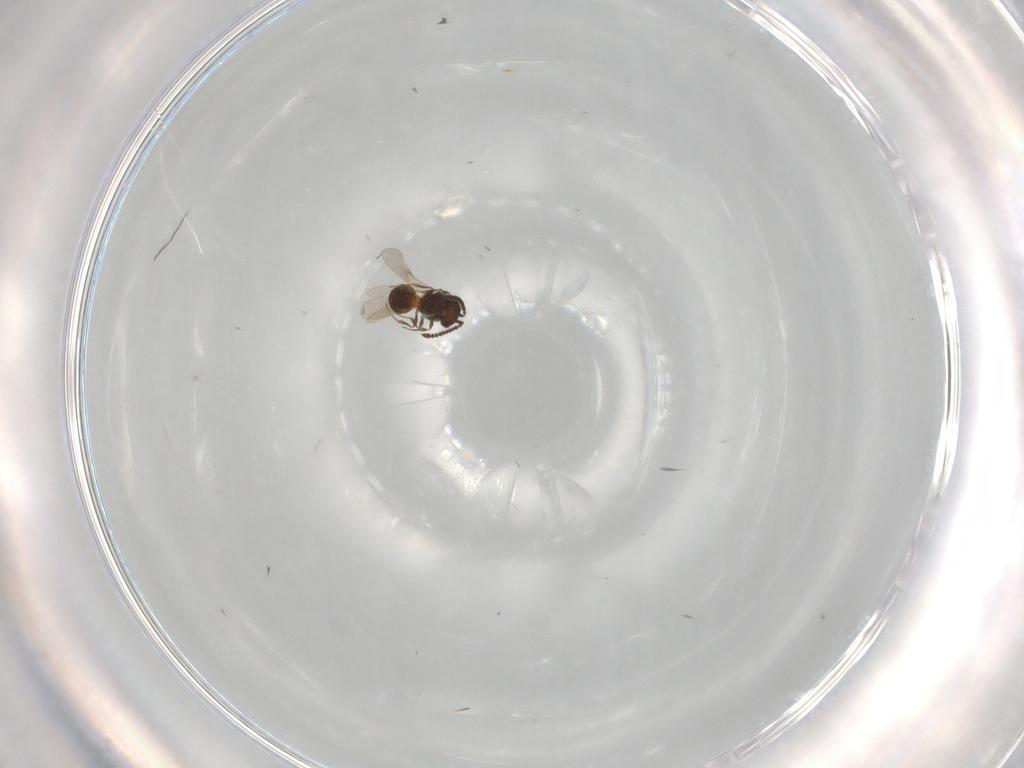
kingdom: Animalia
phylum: Arthropoda
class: Insecta
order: Hymenoptera
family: Scelionidae
